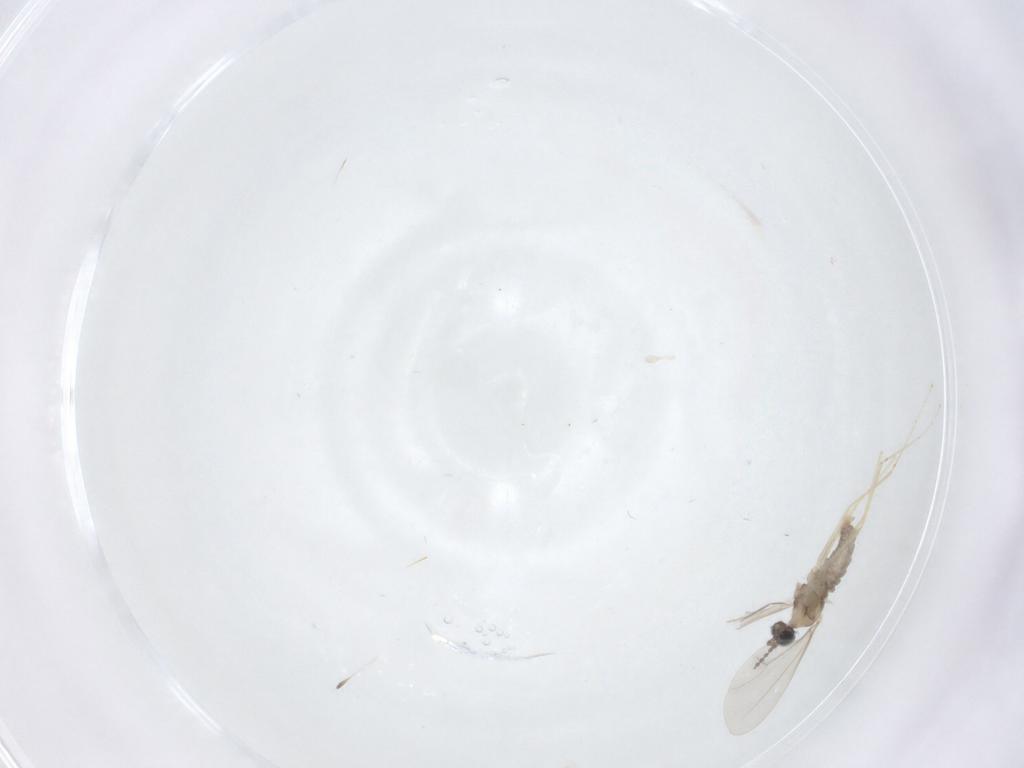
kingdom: Animalia
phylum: Arthropoda
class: Insecta
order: Diptera
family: Cecidomyiidae
